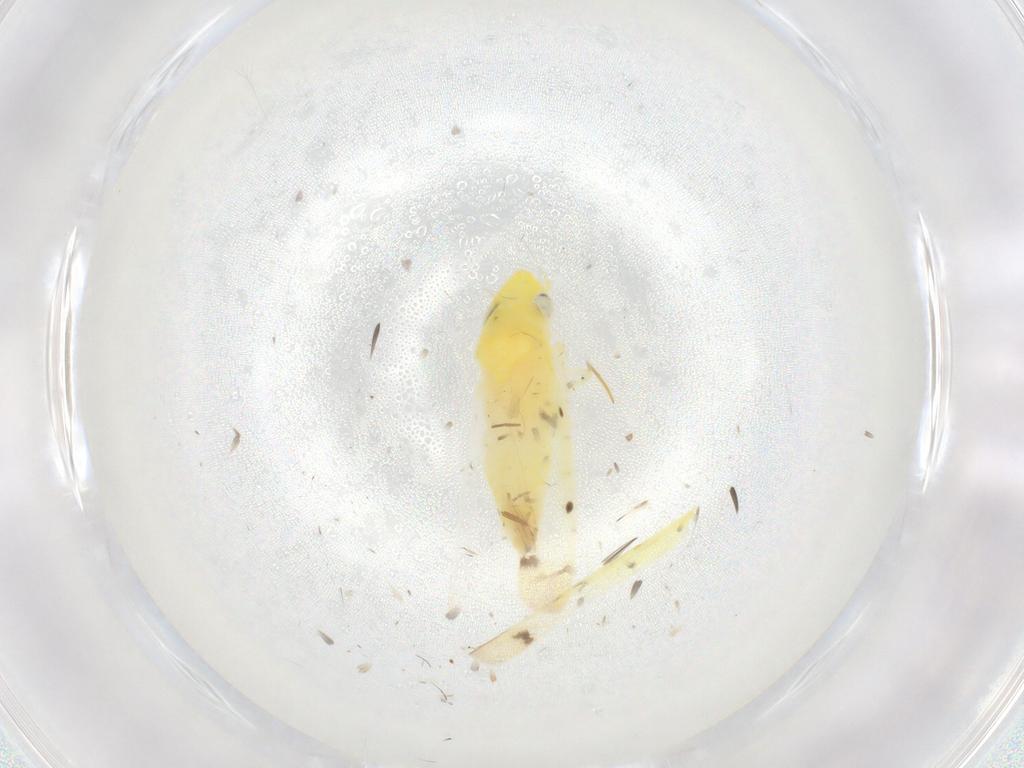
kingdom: Animalia
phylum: Arthropoda
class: Insecta
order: Hemiptera
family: Cicadellidae
